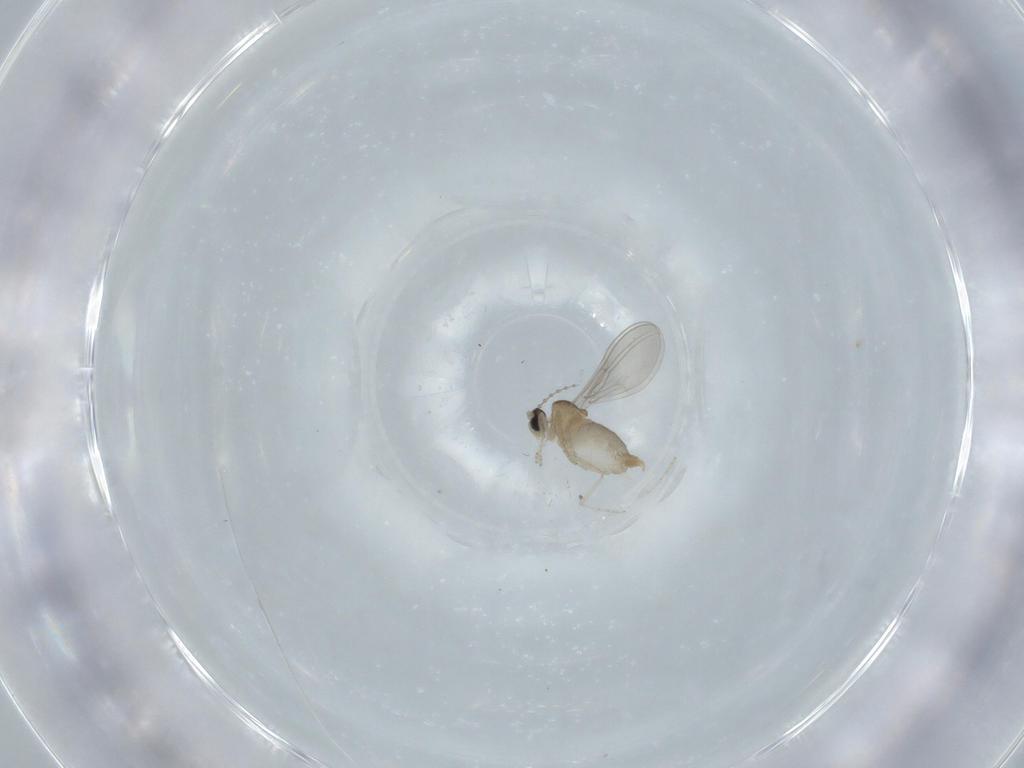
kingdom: Animalia
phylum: Arthropoda
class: Insecta
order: Diptera
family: Cecidomyiidae
